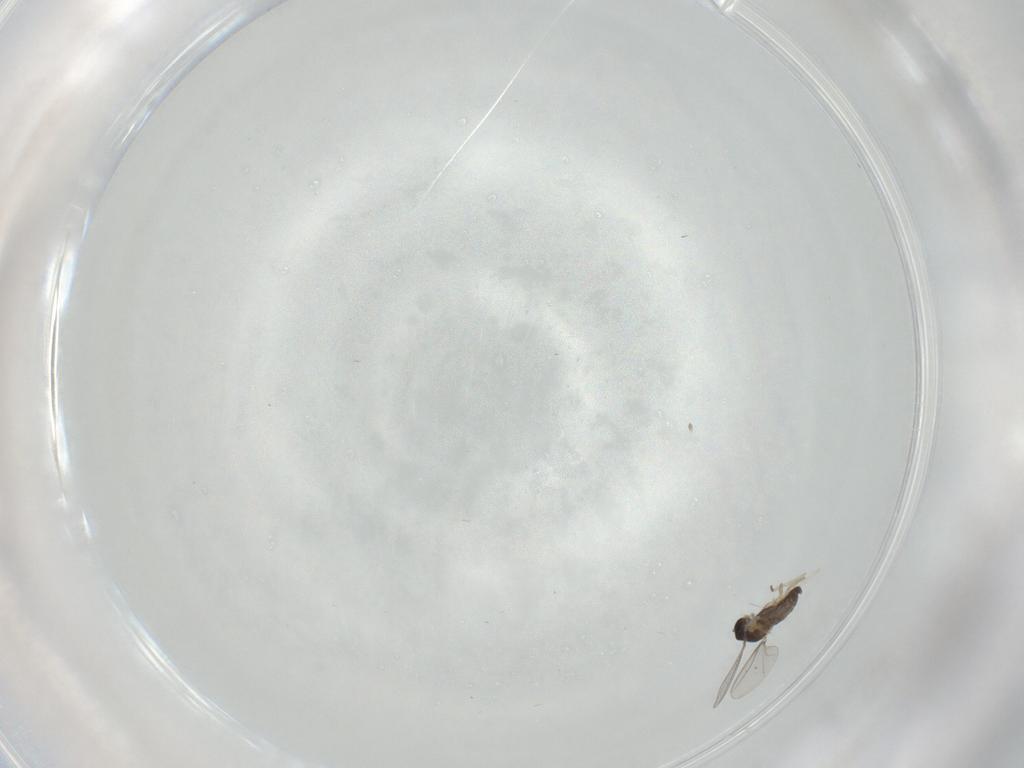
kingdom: Animalia
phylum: Arthropoda
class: Insecta
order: Diptera
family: Cecidomyiidae
